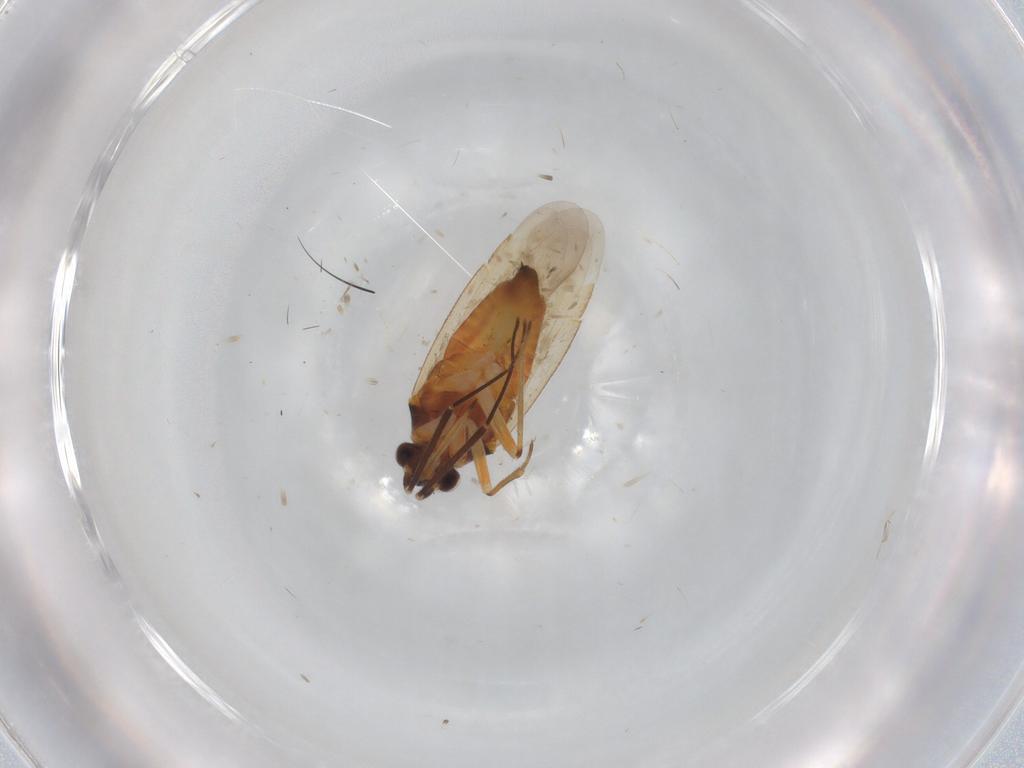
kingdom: Animalia
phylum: Arthropoda
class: Insecta
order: Hemiptera
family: Miridae
